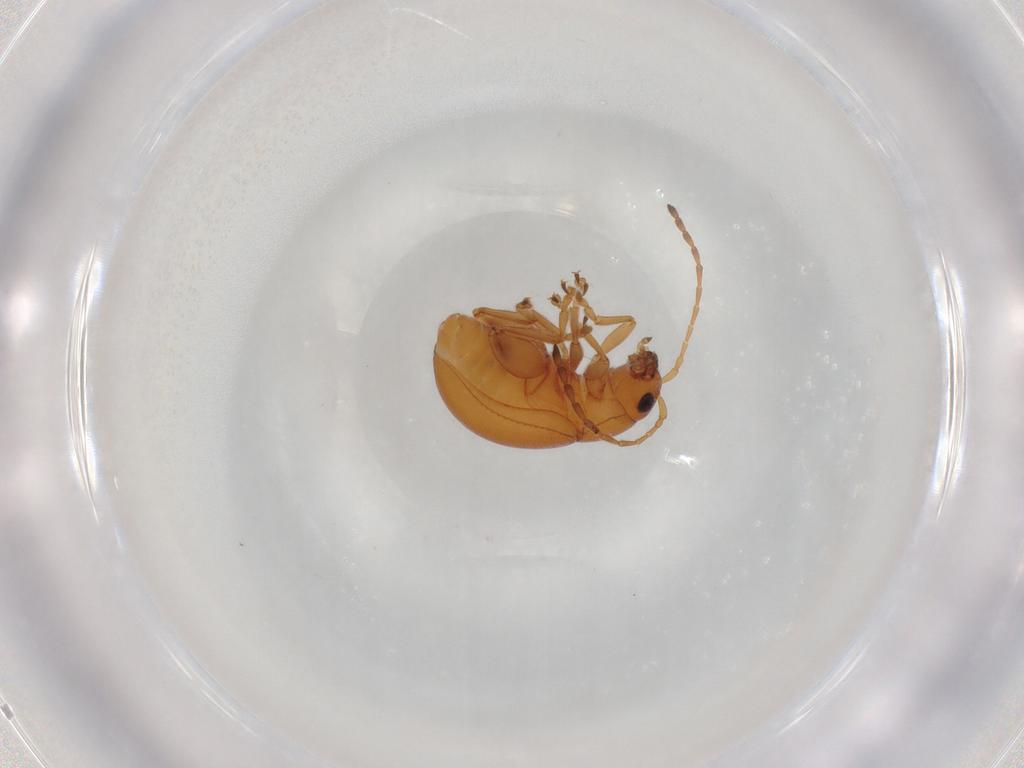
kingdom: Animalia
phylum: Arthropoda
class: Insecta
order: Coleoptera
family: Chrysomelidae
